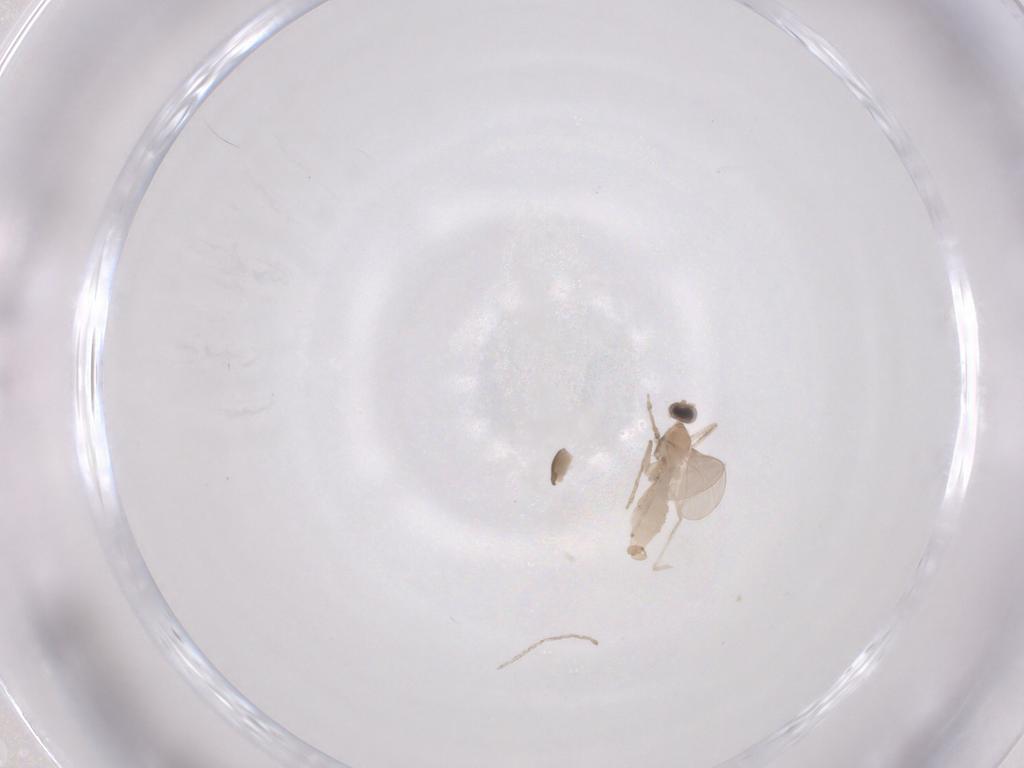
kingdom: Animalia
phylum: Arthropoda
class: Insecta
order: Diptera
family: Cecidomyiidae
